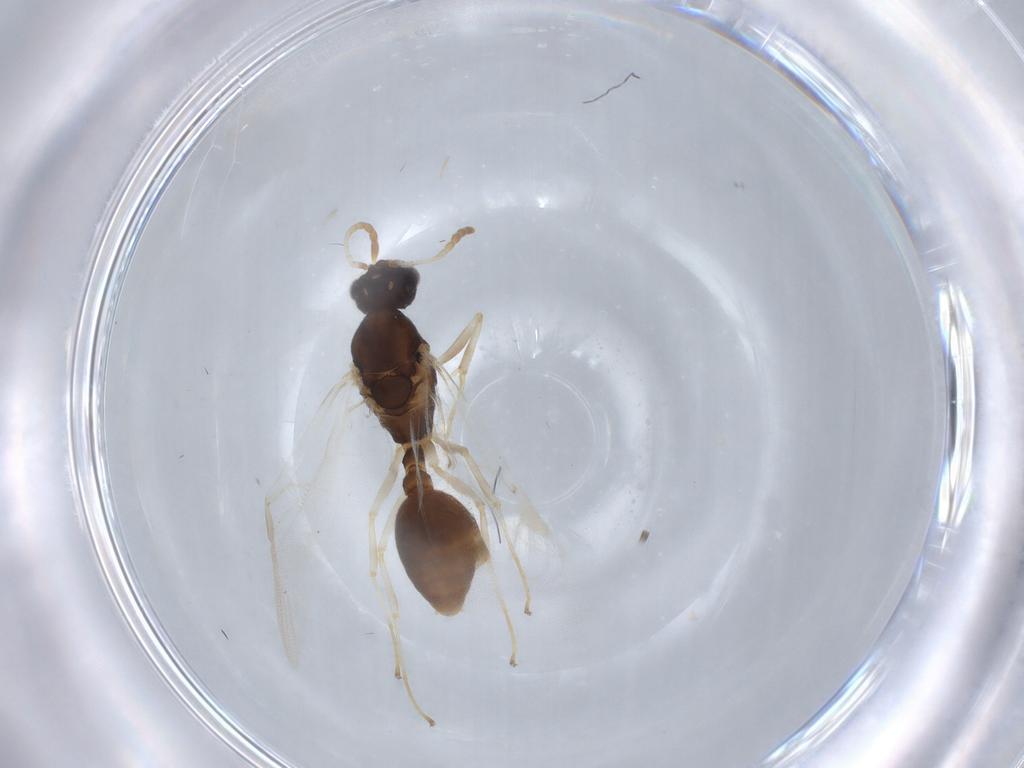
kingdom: Animalia
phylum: Arthropoda
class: Insecta
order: Hymenoptera
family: Formicidae
